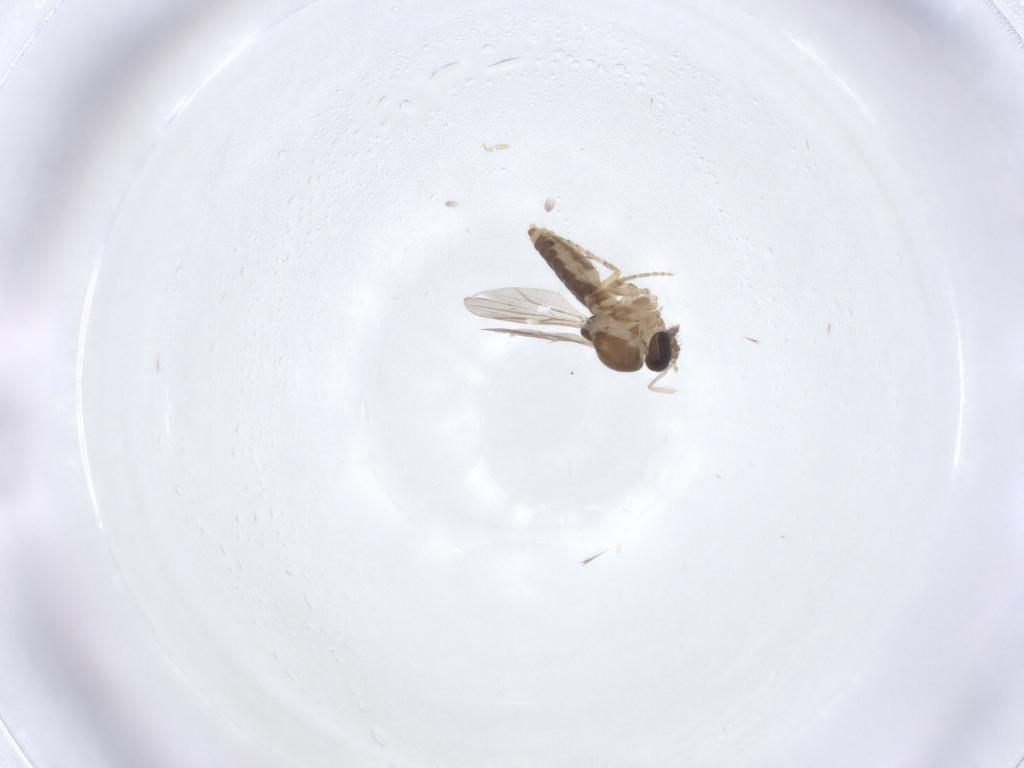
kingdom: Animalia
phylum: Arthropoda
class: Insecta
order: Diptera
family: Ceratopogonidae
